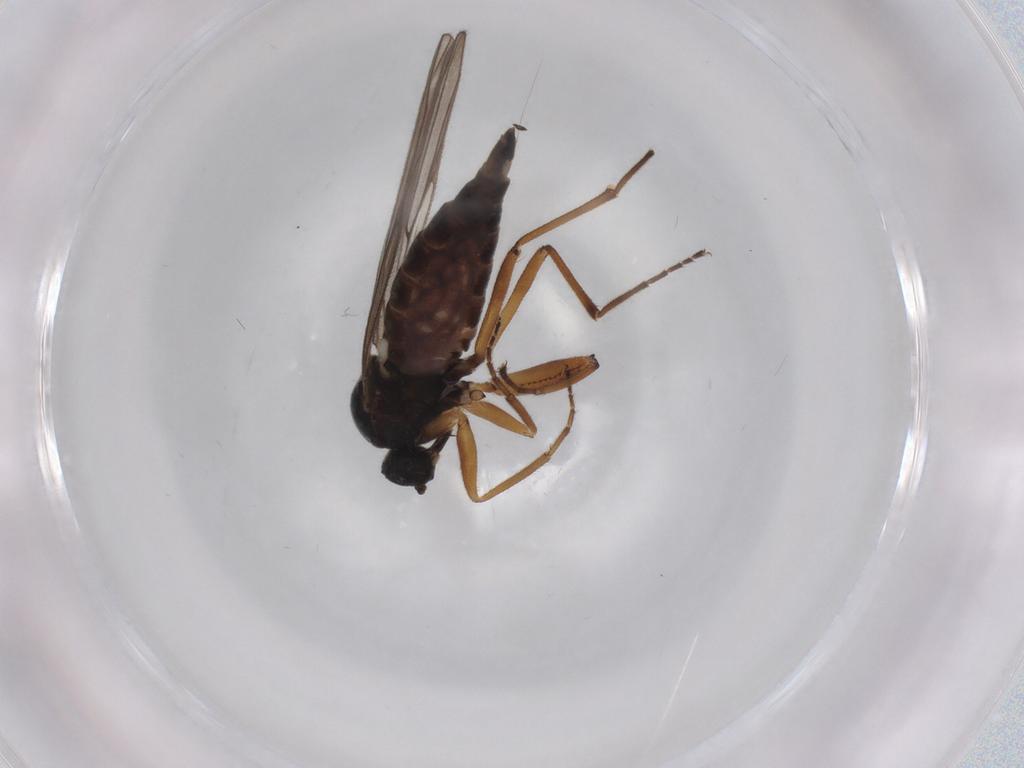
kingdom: Animalia
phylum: Arthropoda
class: Insecta
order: Diptera
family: Hybotidae
